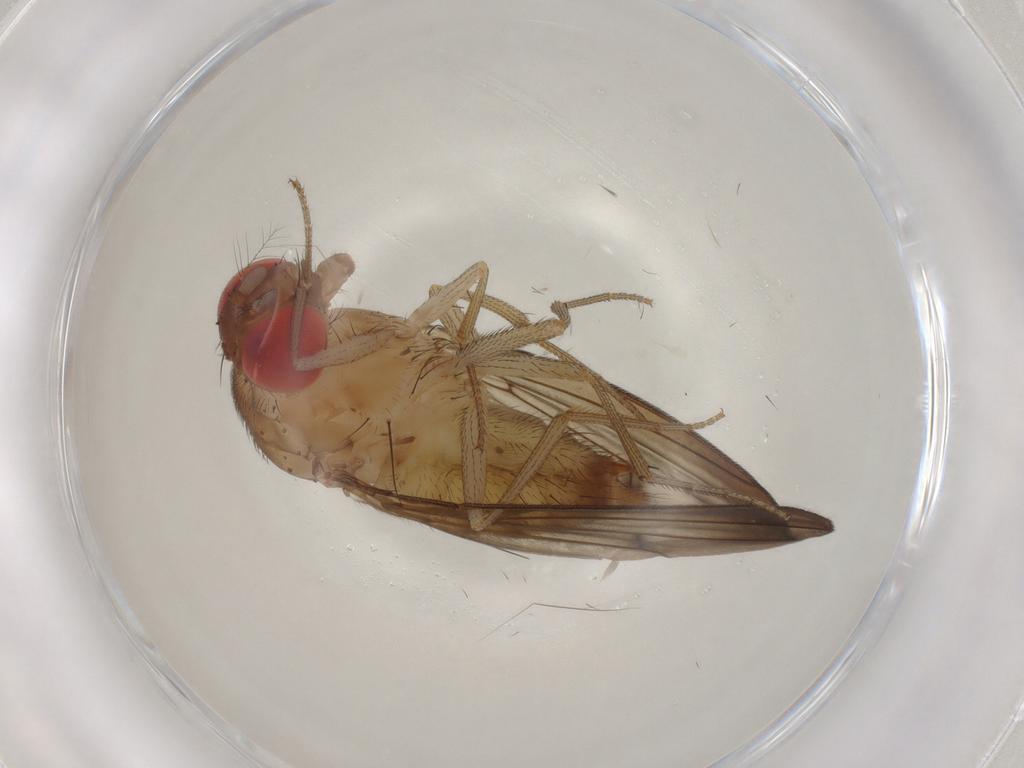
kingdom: Animalia
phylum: Arthropoda
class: Insecta
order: Diptera
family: Drosophilidae
